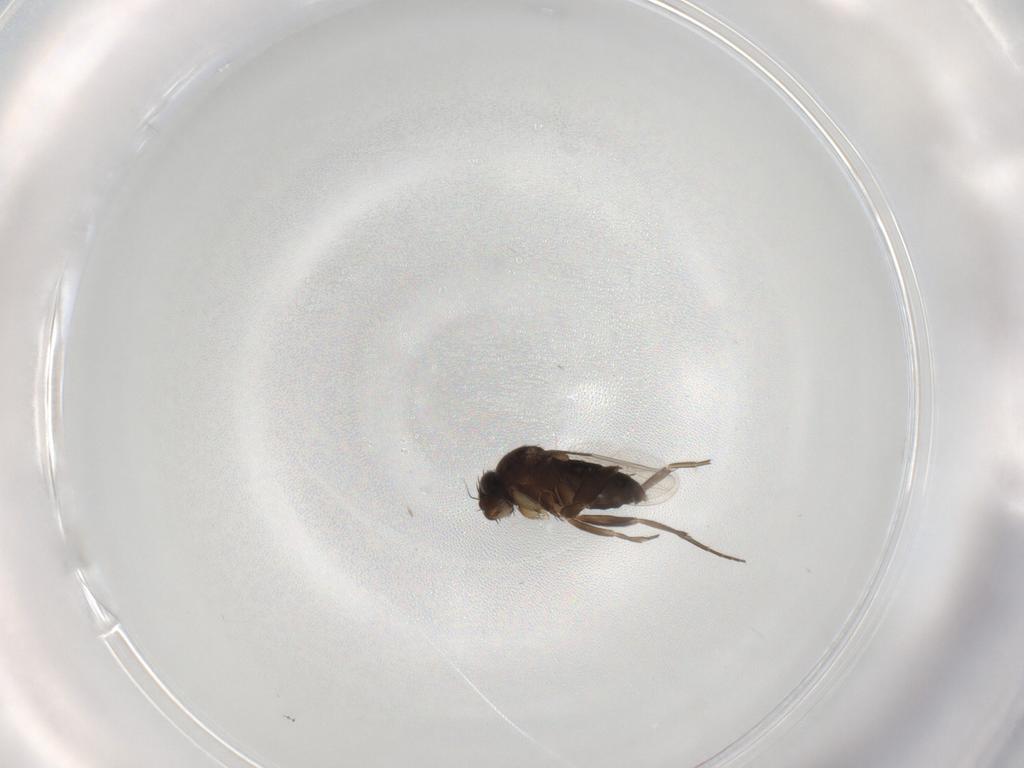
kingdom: Animalia
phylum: Arthropoda
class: Insecta
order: Diptera
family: Phoridae
